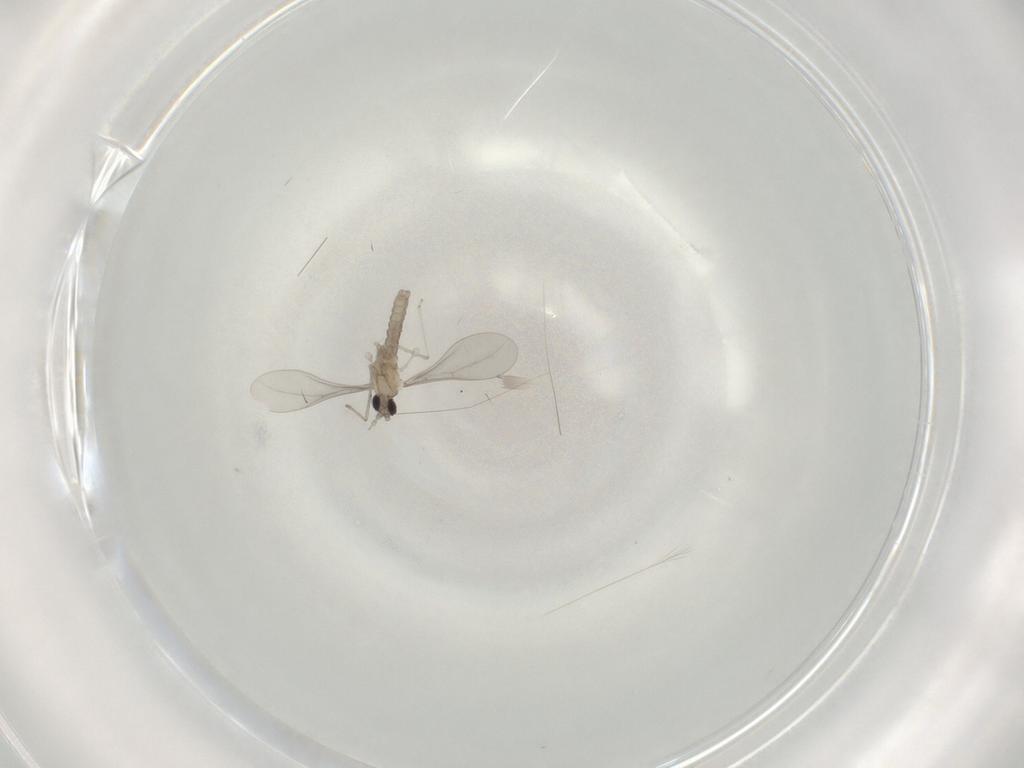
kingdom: Animalia
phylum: Arthropoda
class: Insecta
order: Diptera
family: Cecidomyiidae
